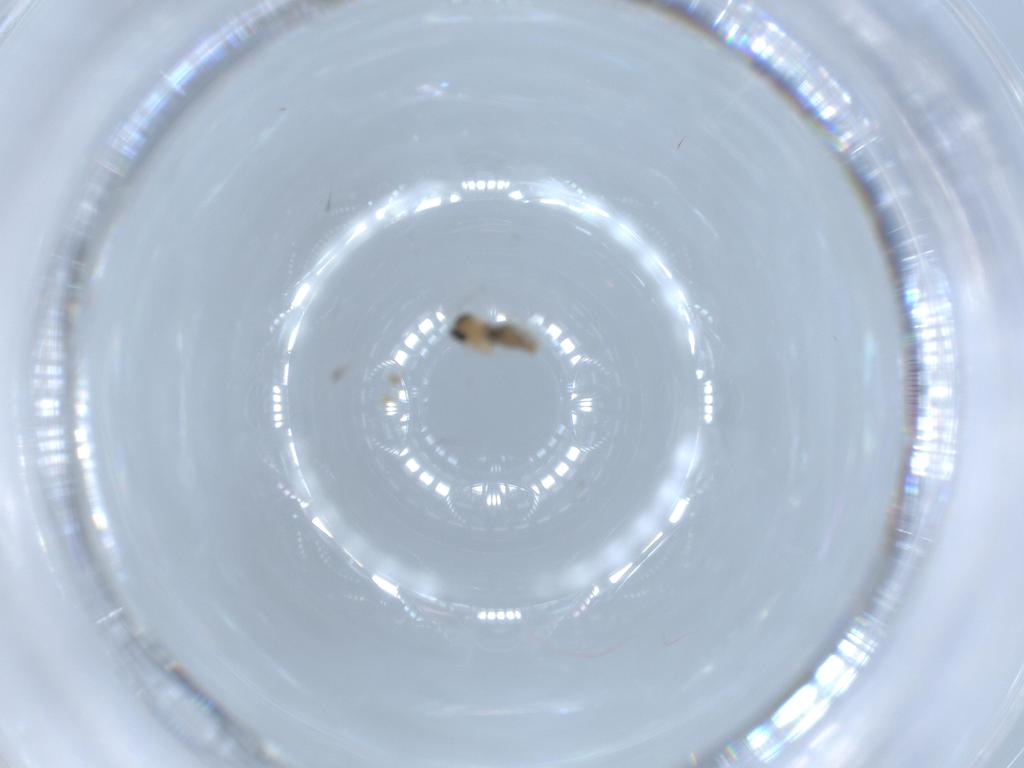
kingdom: Animalia
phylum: Arthropoda
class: Insecta
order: Diptera
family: Cecidomyiidae
